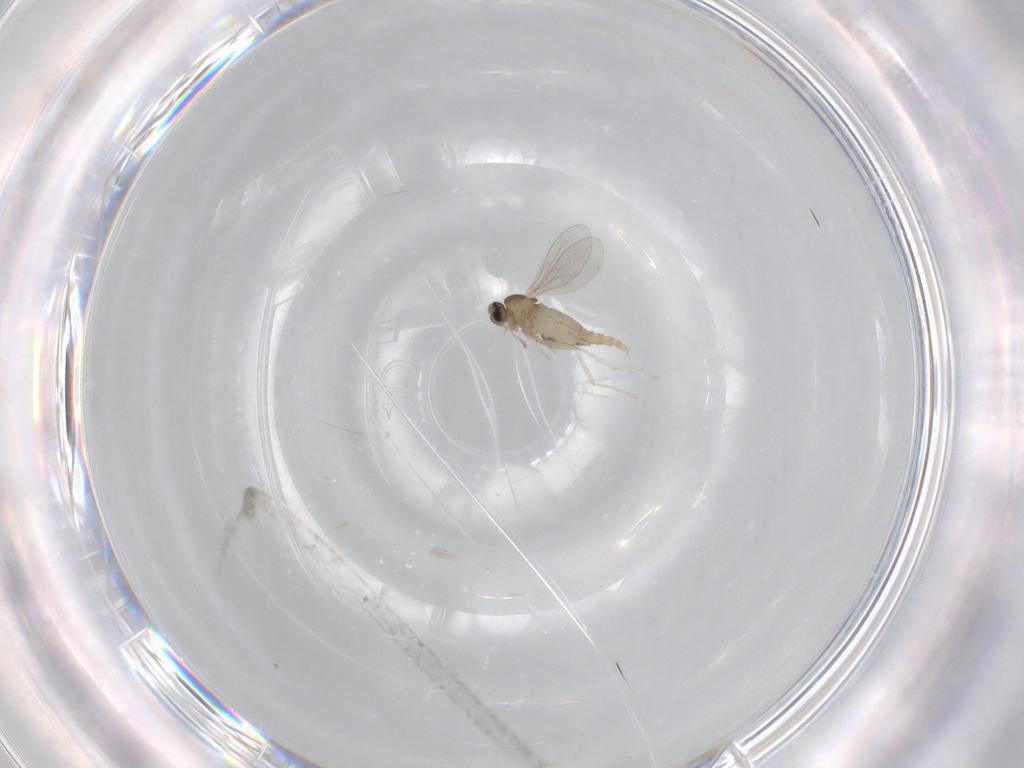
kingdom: Animalia
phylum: Arthropoda
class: Insecta
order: Diptera
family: Cecidomyiidae
